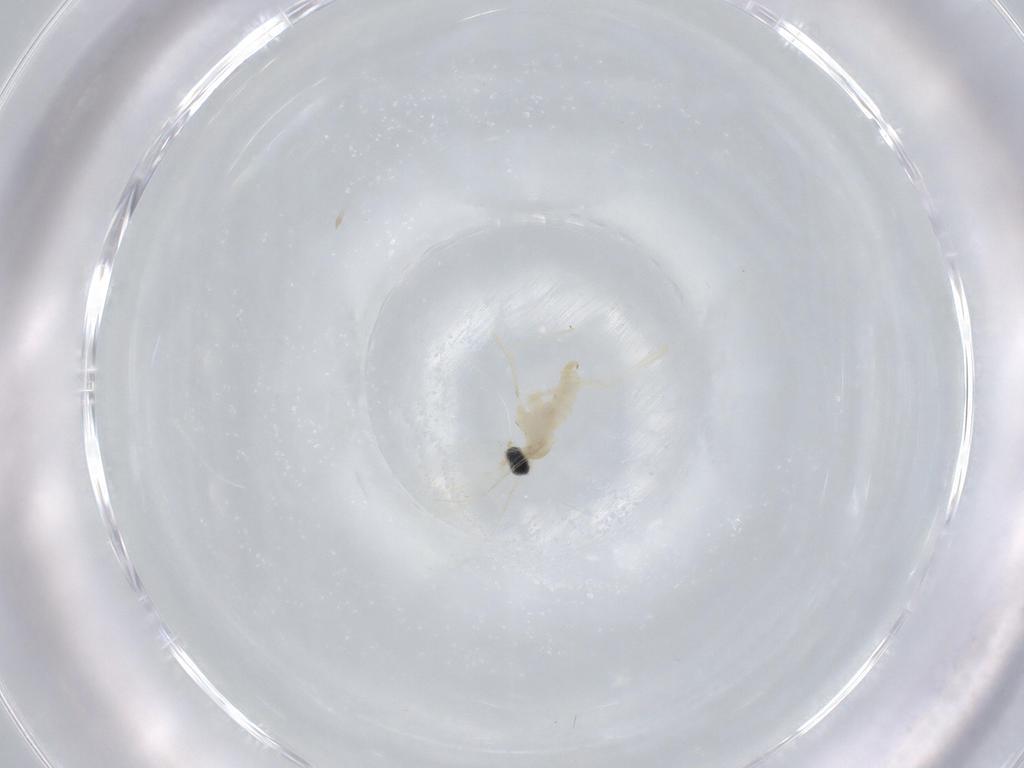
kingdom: Animalia
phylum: Arthropoda
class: Insecta
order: Diptera
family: Cecidomyiidae
